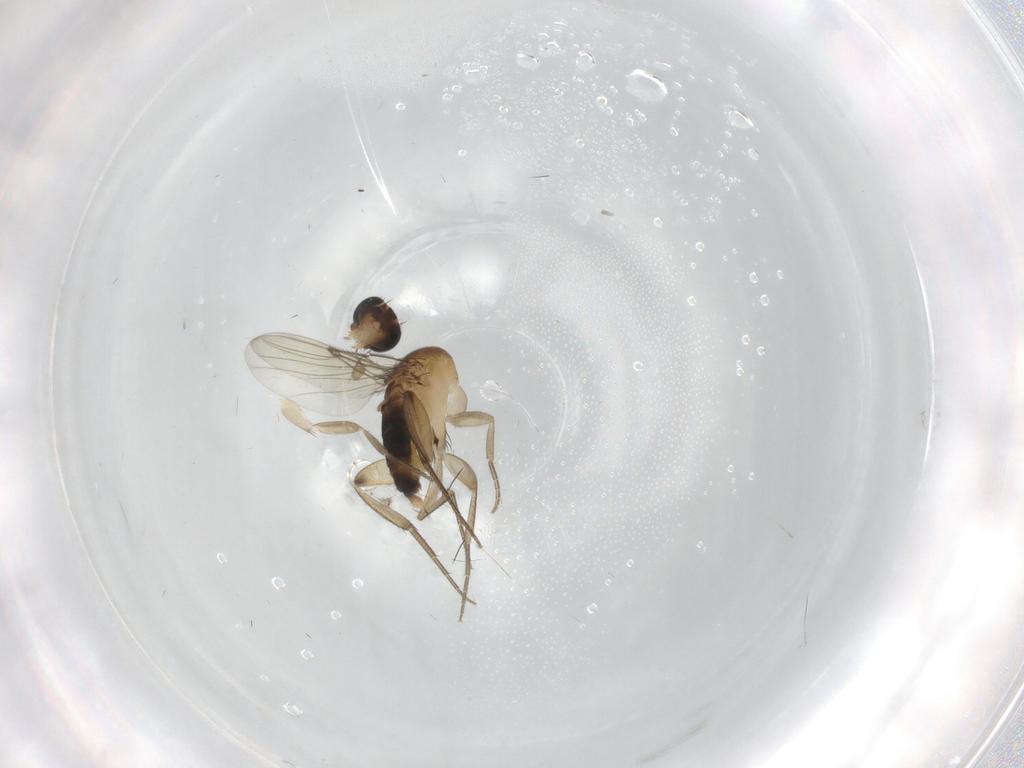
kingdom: Animalia
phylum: Arthropoda
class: Insecta
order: Diptera
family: Phoridae
